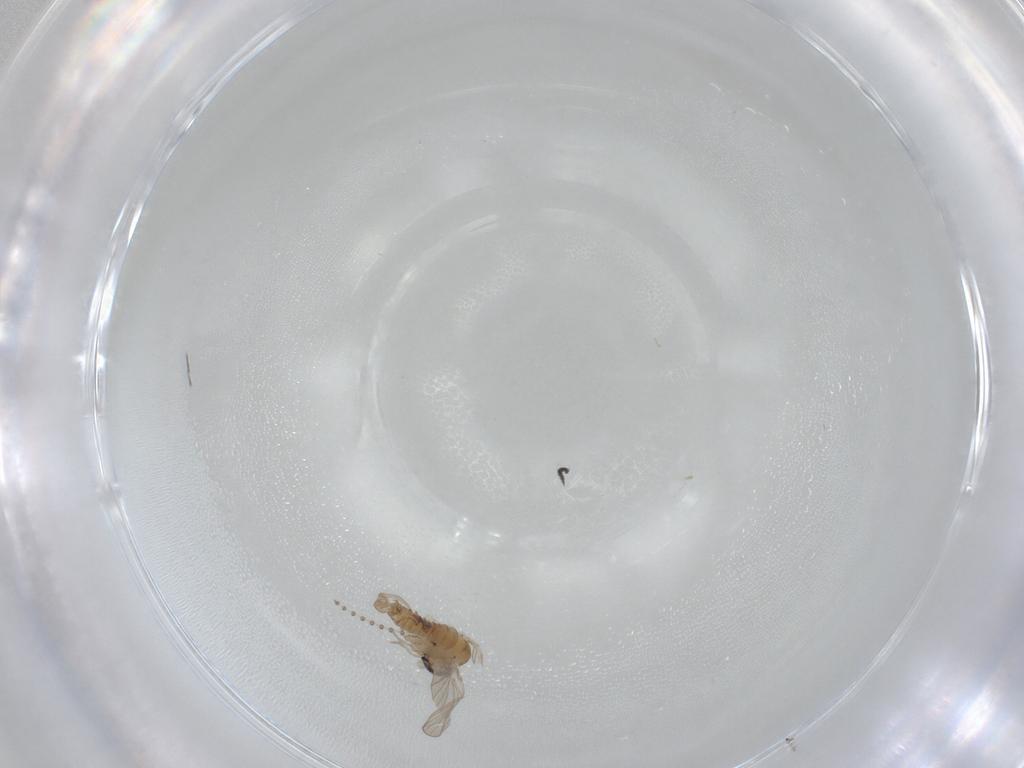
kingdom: Animalia
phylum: Arthropoda
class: Insecta
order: Diptera
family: Psychodidae
